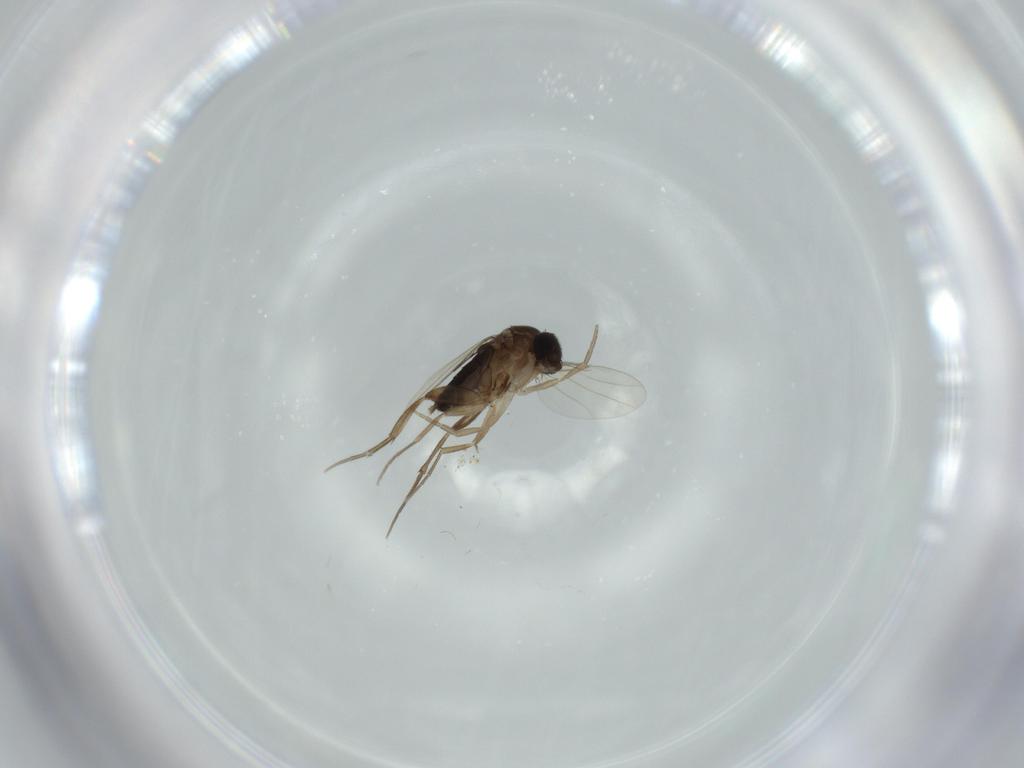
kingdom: Animalia
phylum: Arthropoda
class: Insecta
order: Diptera
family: Phoridae
